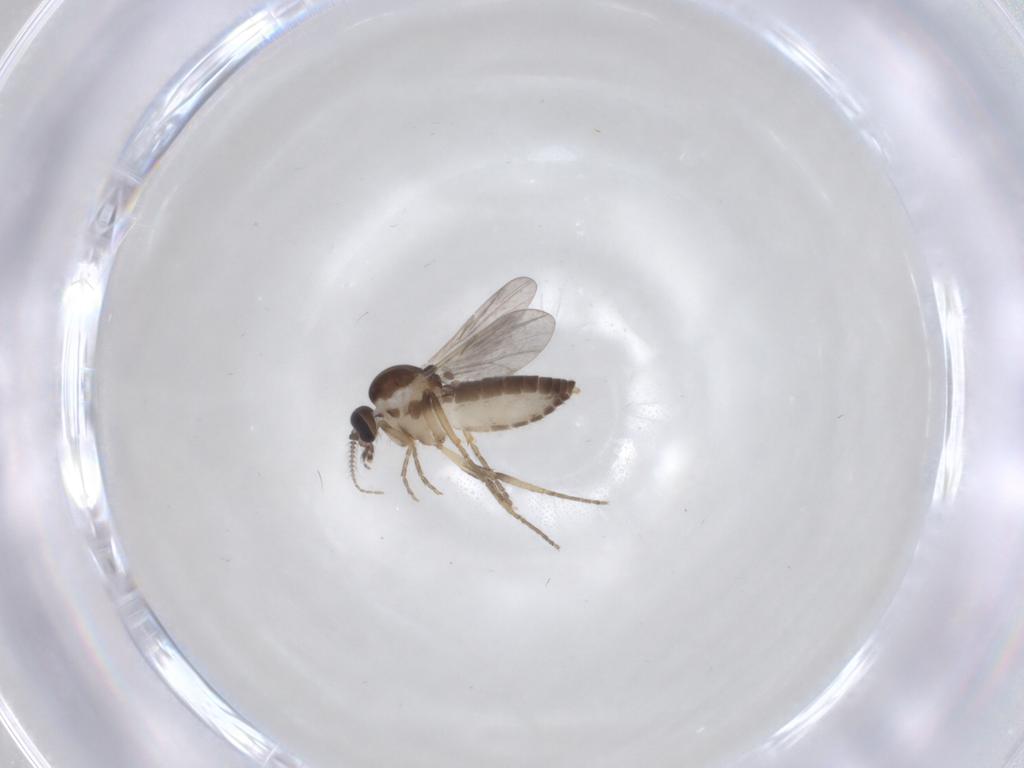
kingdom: Animalia
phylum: Arthropoda
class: Insecta
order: Diptera
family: Ceratopogonidae
